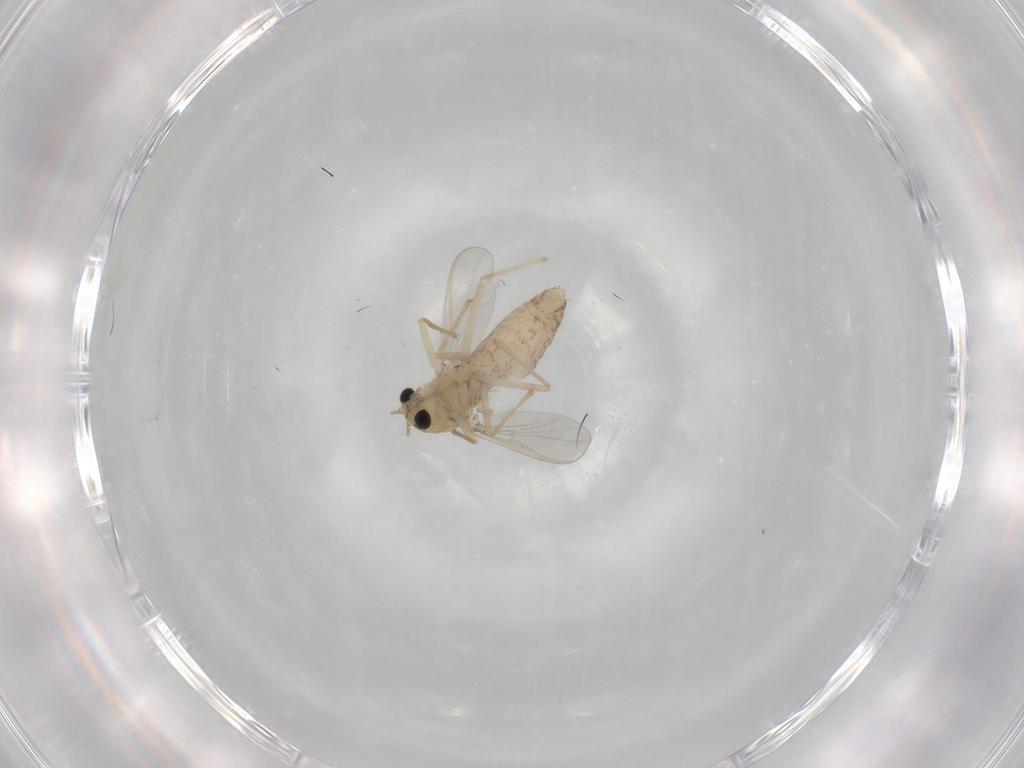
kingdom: Animalia
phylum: Arthropoda
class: Insecta
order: Diptera
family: Chironomidae
